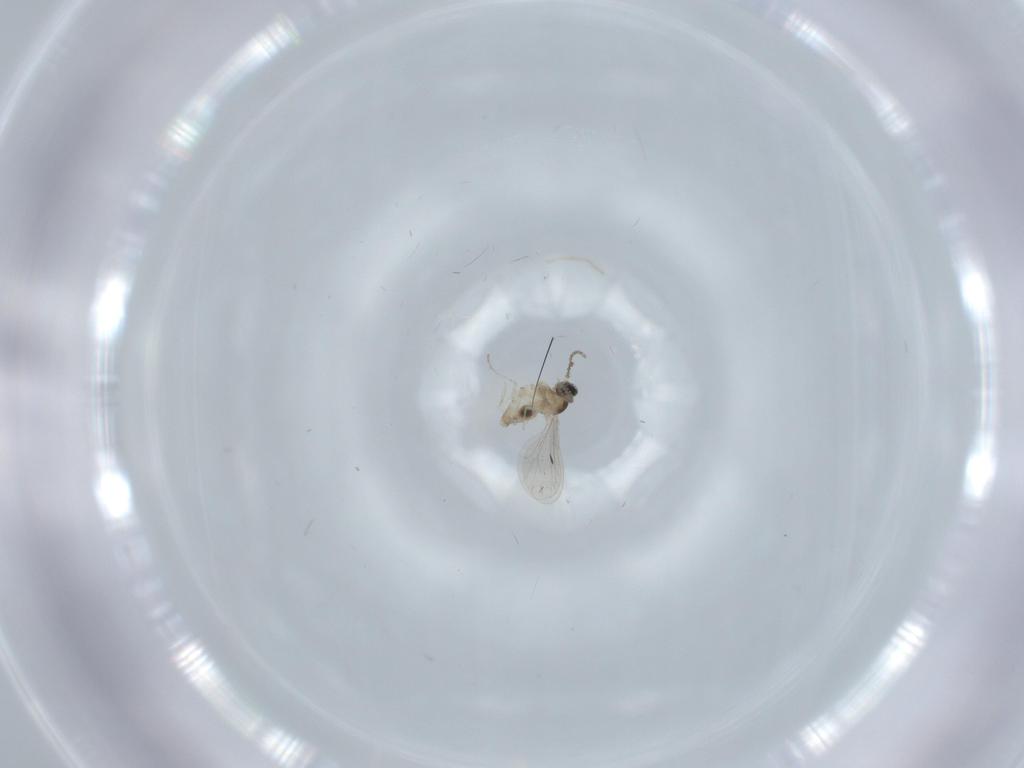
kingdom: Animalia
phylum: Arthropoda
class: Insecta
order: Diptera
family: Cecidomyiidae
